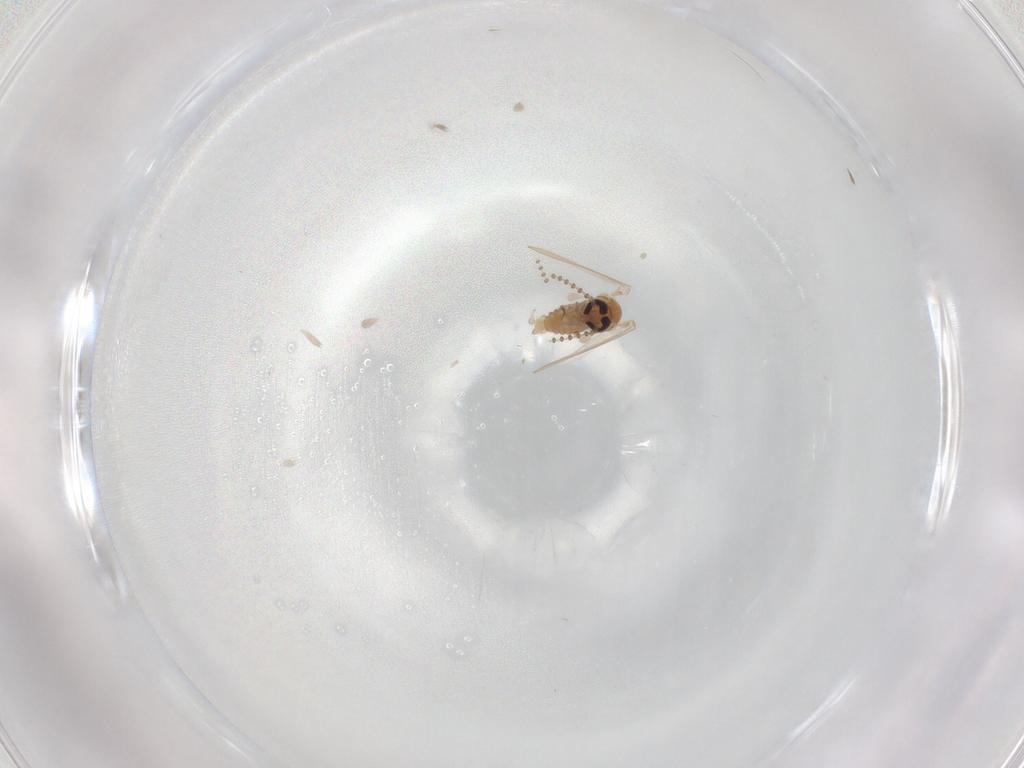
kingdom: Animalia
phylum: Arthropoda
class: Insecta
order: Diptera
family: Psychodidae
